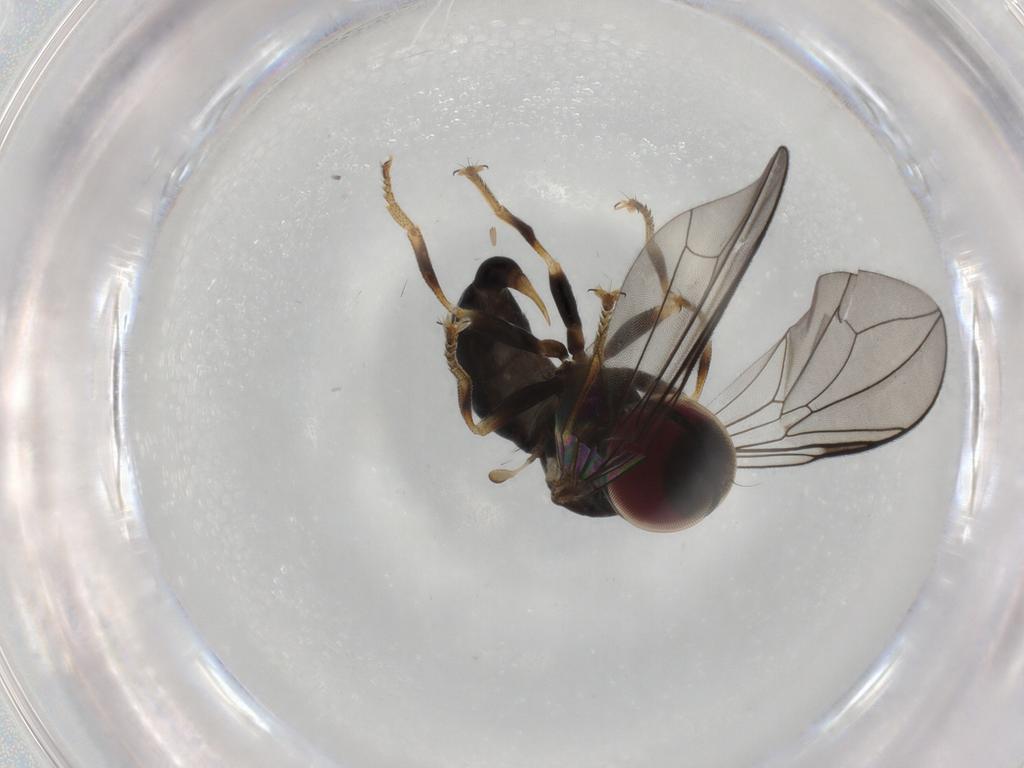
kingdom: Animalia
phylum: Arthropoda
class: Insecta
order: Diptera
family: Pipunculidae
